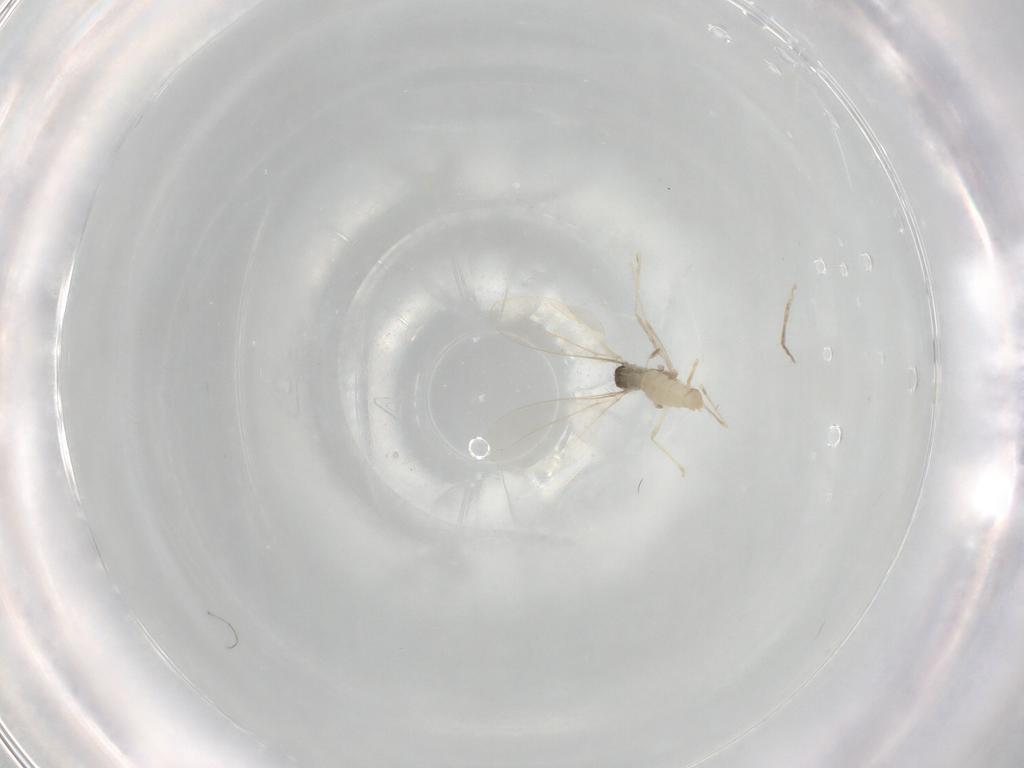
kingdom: Animalia
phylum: Arthropoda
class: Insecta
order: Diptera
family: Phoridae
